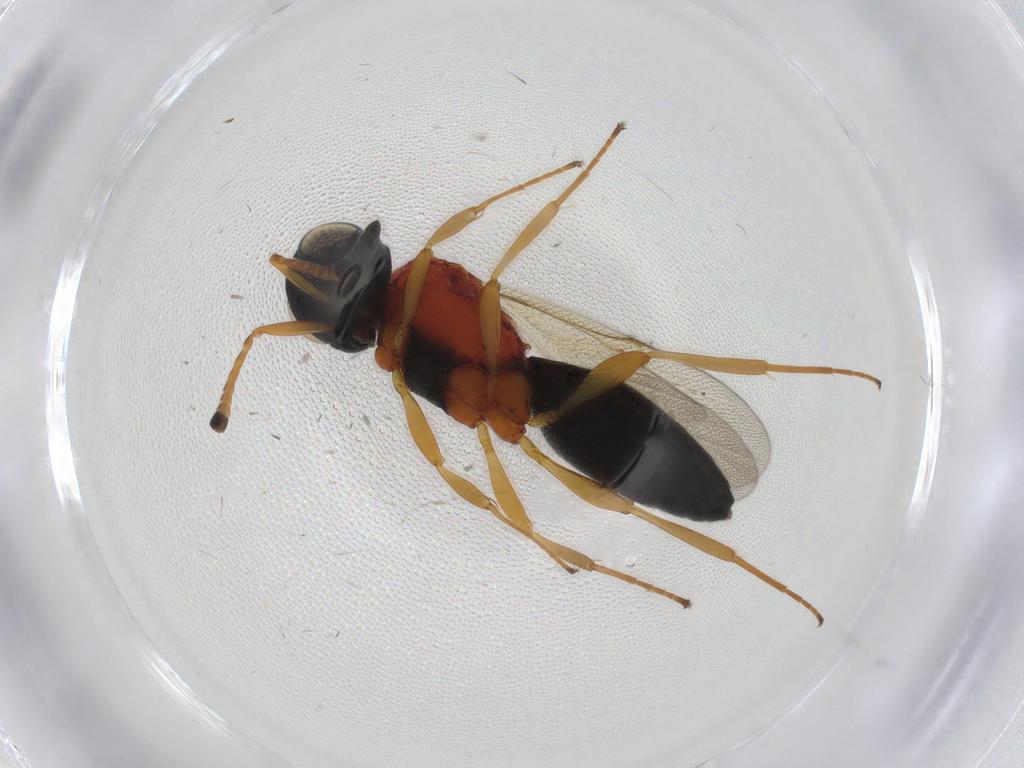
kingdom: Animalia
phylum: Arthropoda
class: Insecta
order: Hymenoptera
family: Scelionidae
